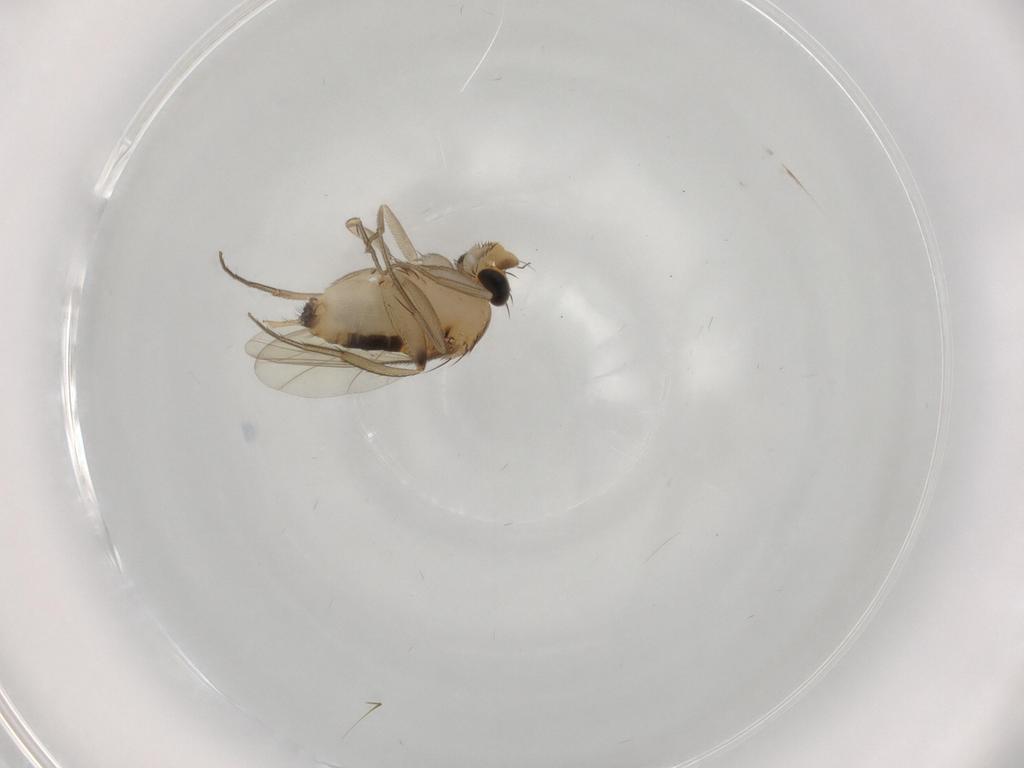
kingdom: Animalia
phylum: Arthropoda
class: Insecta
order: Diptera
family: Phoridae
